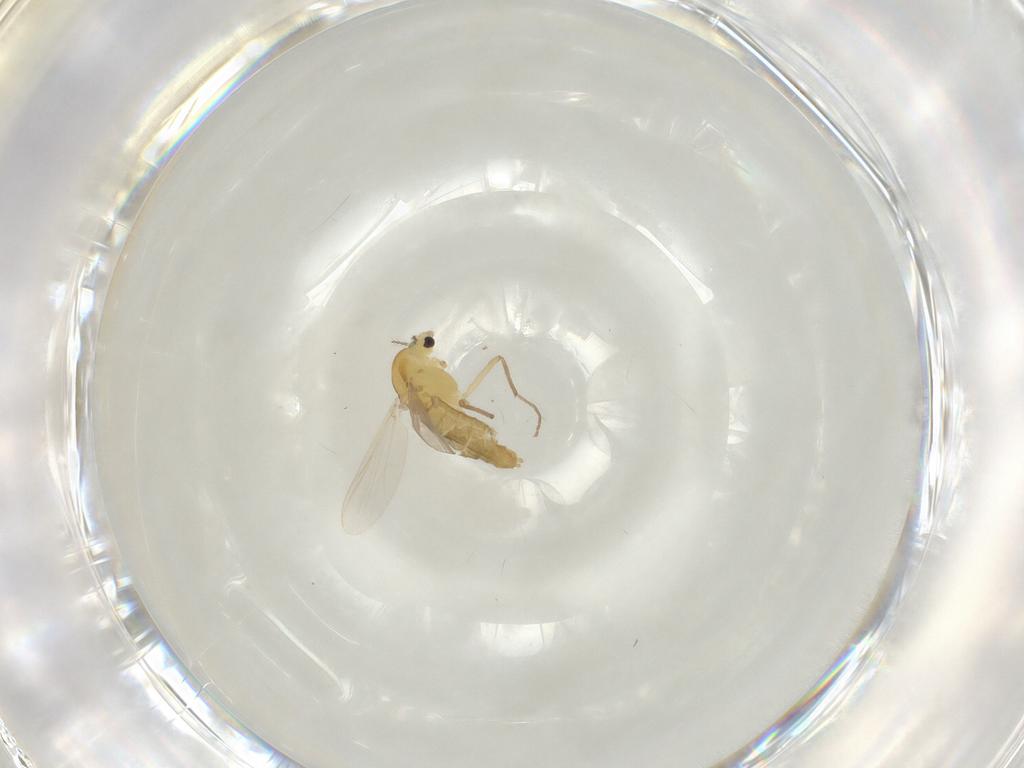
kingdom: Animalia
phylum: Arthropoda
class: Insecta
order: Diptera
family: Chironomidae
